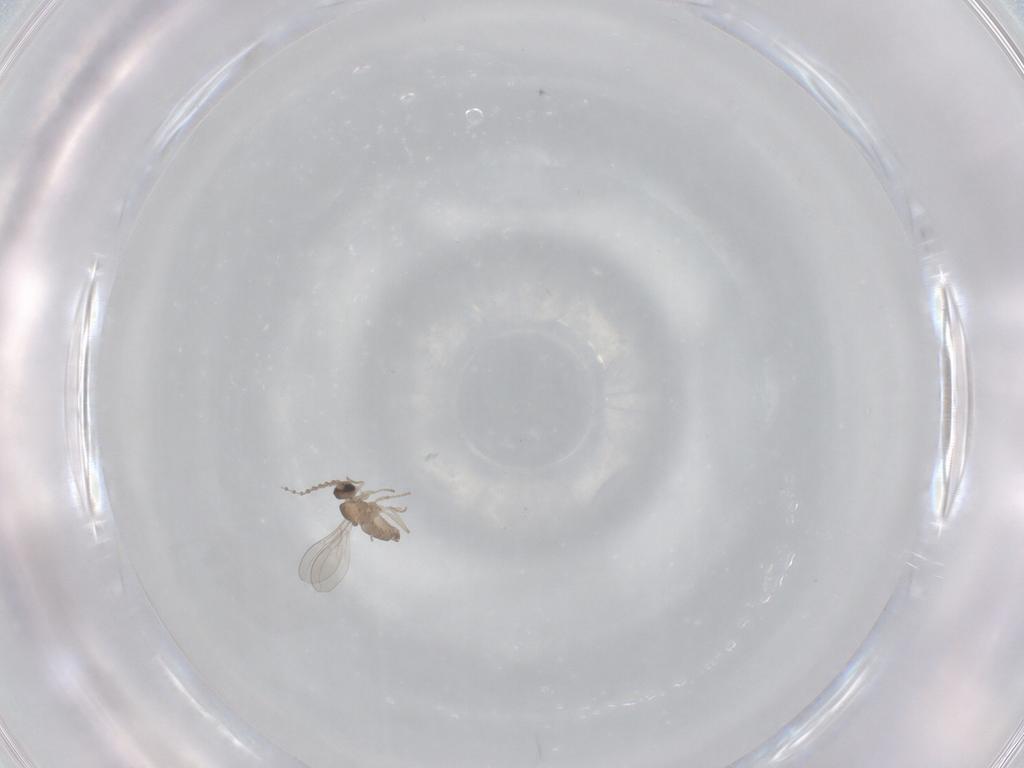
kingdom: Animalia
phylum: Arthropoda
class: Insecta
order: Diptera
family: Cecidomyiidae
